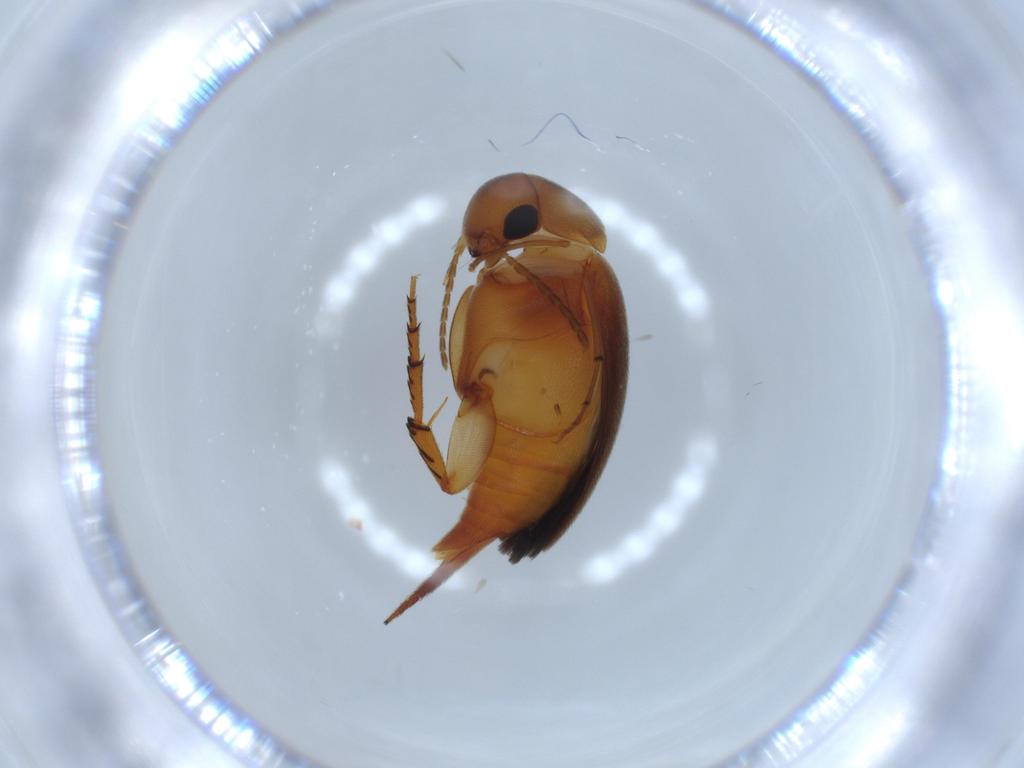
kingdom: Animalia
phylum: Arthropoda
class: Insecta
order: Coleoptera
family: Mordellidae
